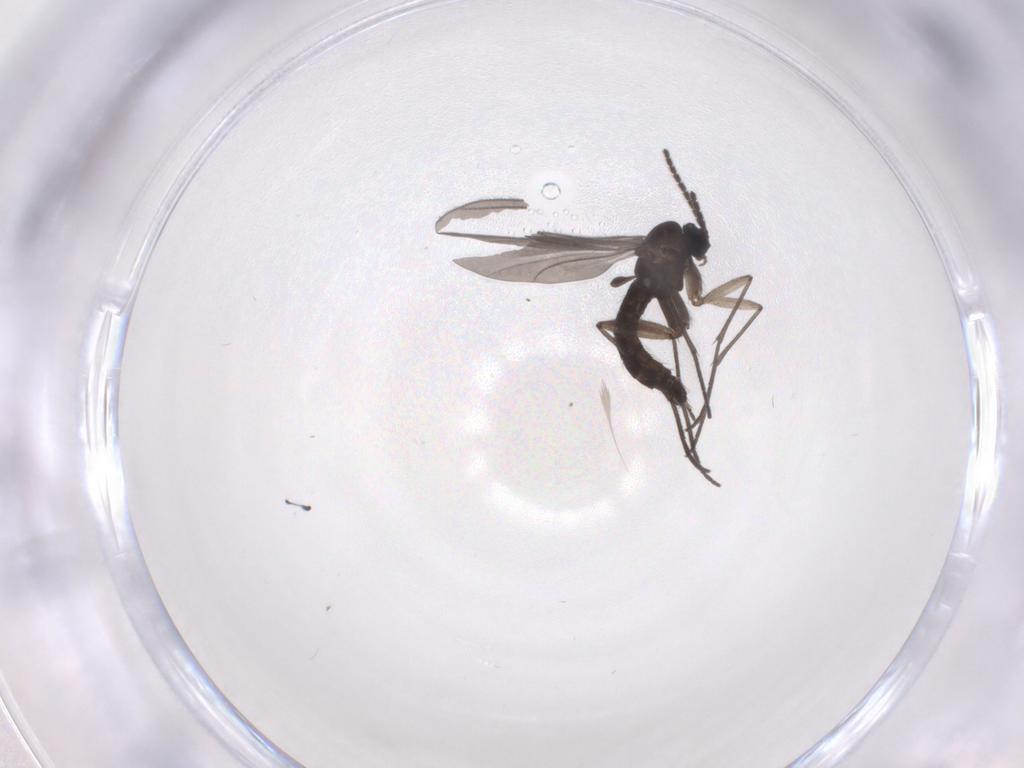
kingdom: Animalia
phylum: Arthropoda
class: Insecta
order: Diptera
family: Sciaridae
